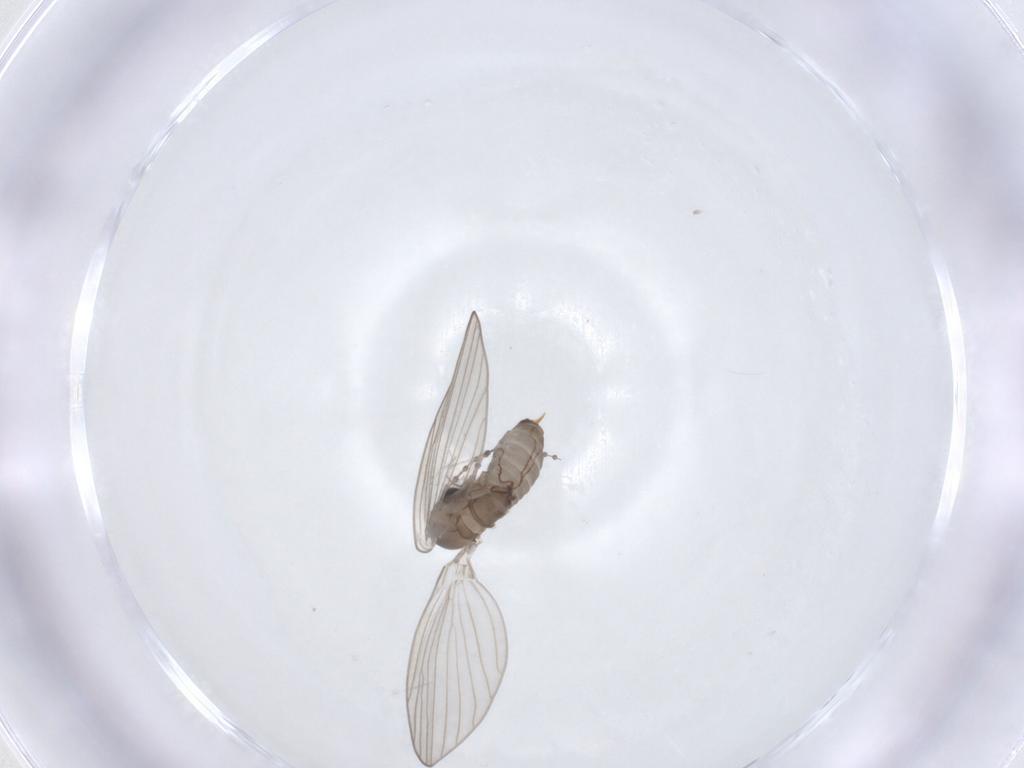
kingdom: Animalia
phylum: Arthropoda
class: Insecta
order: Diptera
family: Psychodidae
